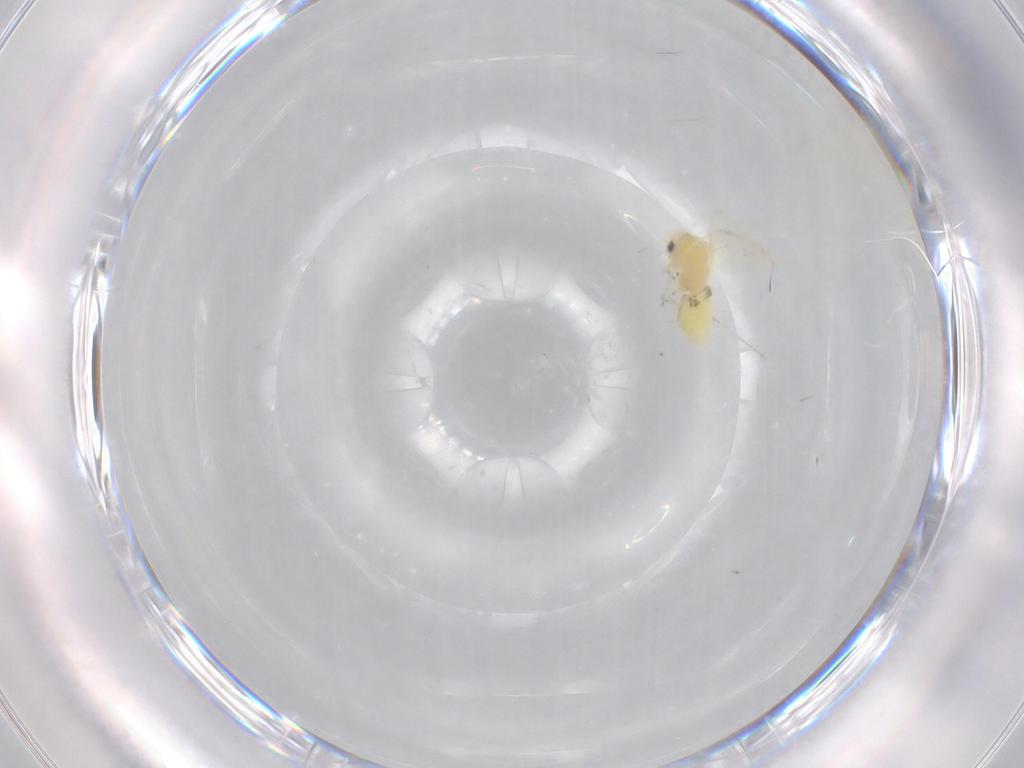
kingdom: Animalia
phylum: Arthropoda
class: Insecta
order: Hemiptera
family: Aleyrodidae
